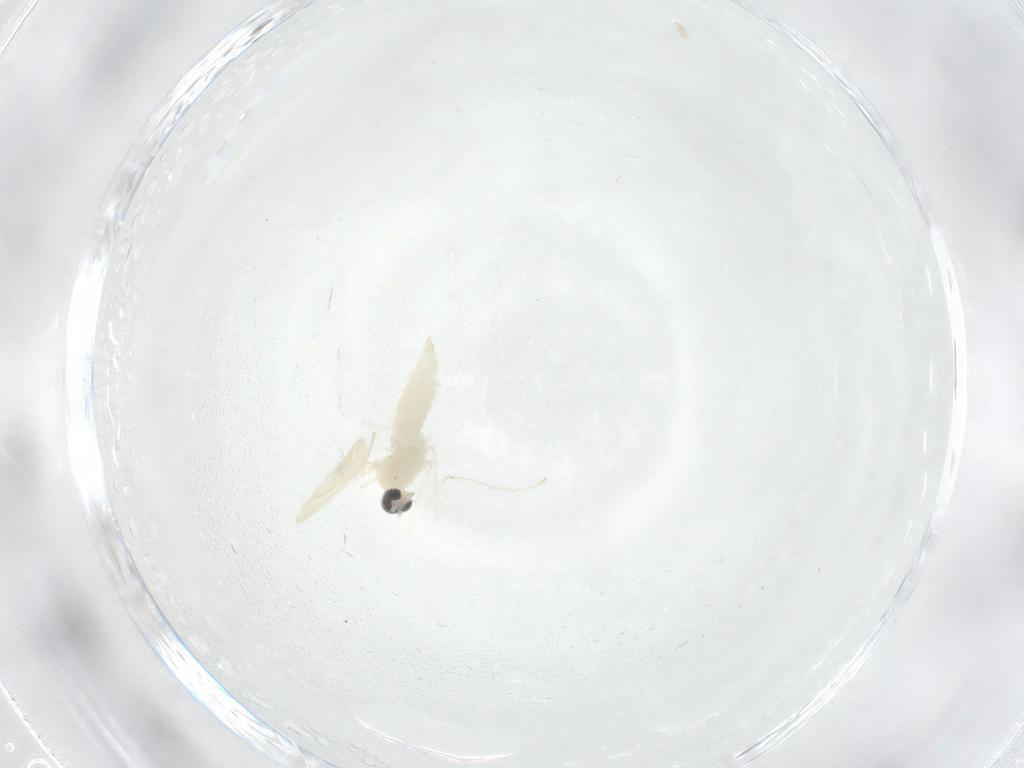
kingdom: Animalia
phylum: Arthropoda
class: Insecta
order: Diptera
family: Cecidomyiidae
